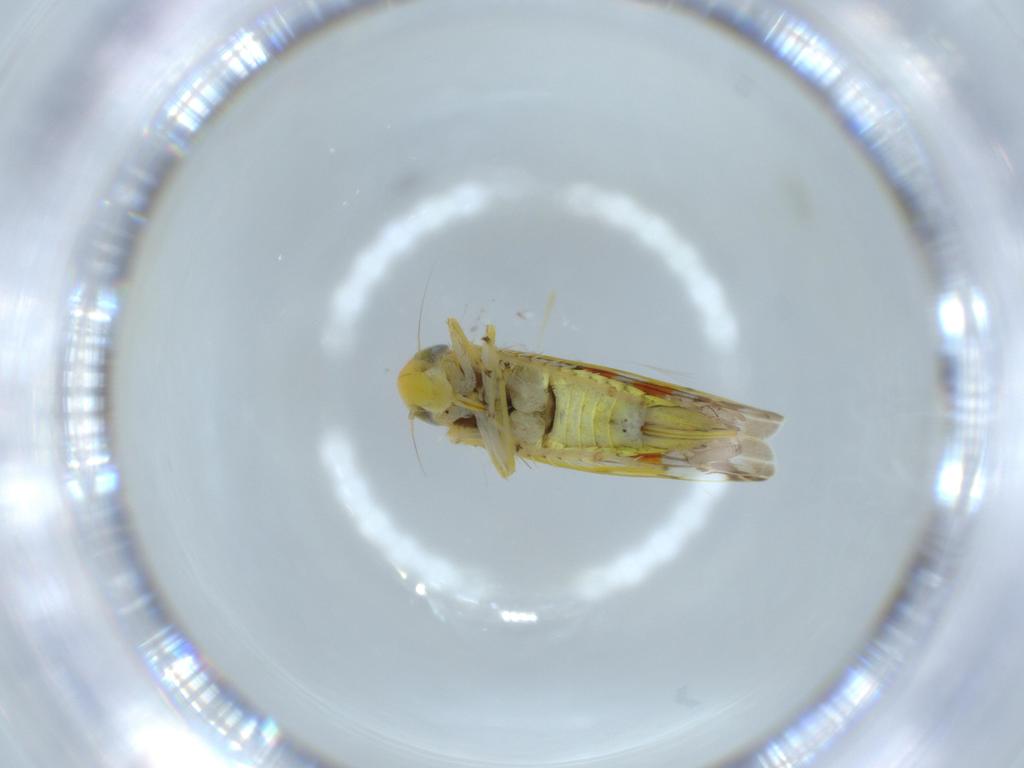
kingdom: Animalia
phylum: Arthropoda
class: Insecta
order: Hemiptera
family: Cicadellidae
